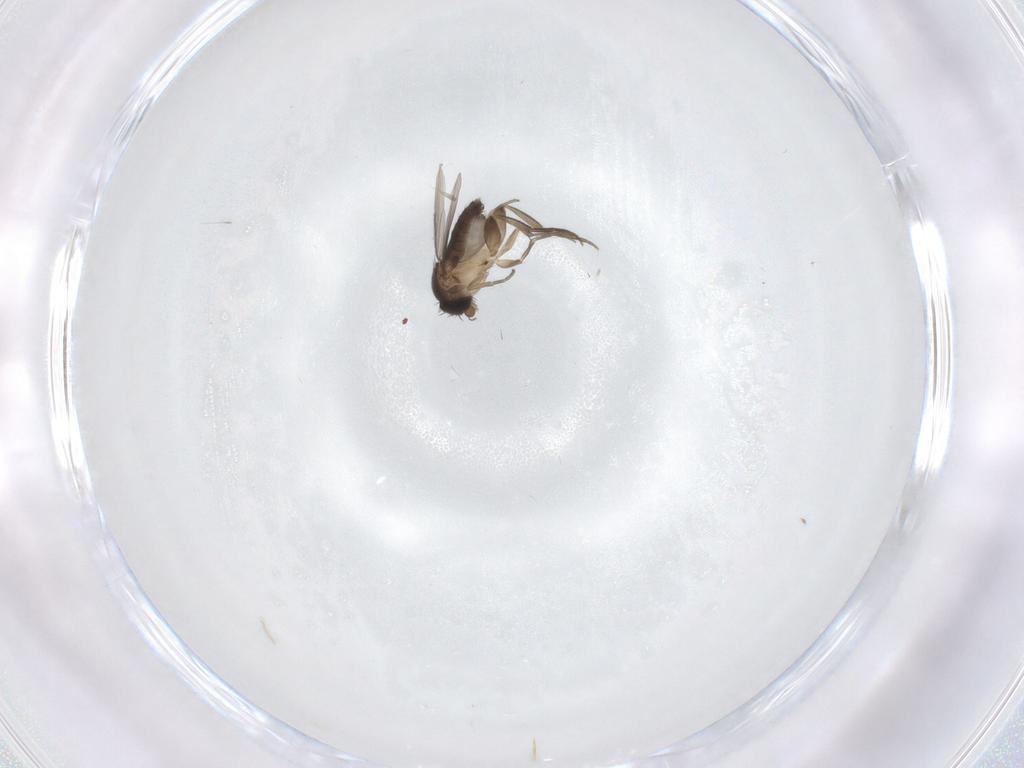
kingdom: Animalia
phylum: Arthropoda
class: Insecta
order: Diptera
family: Phoridae
